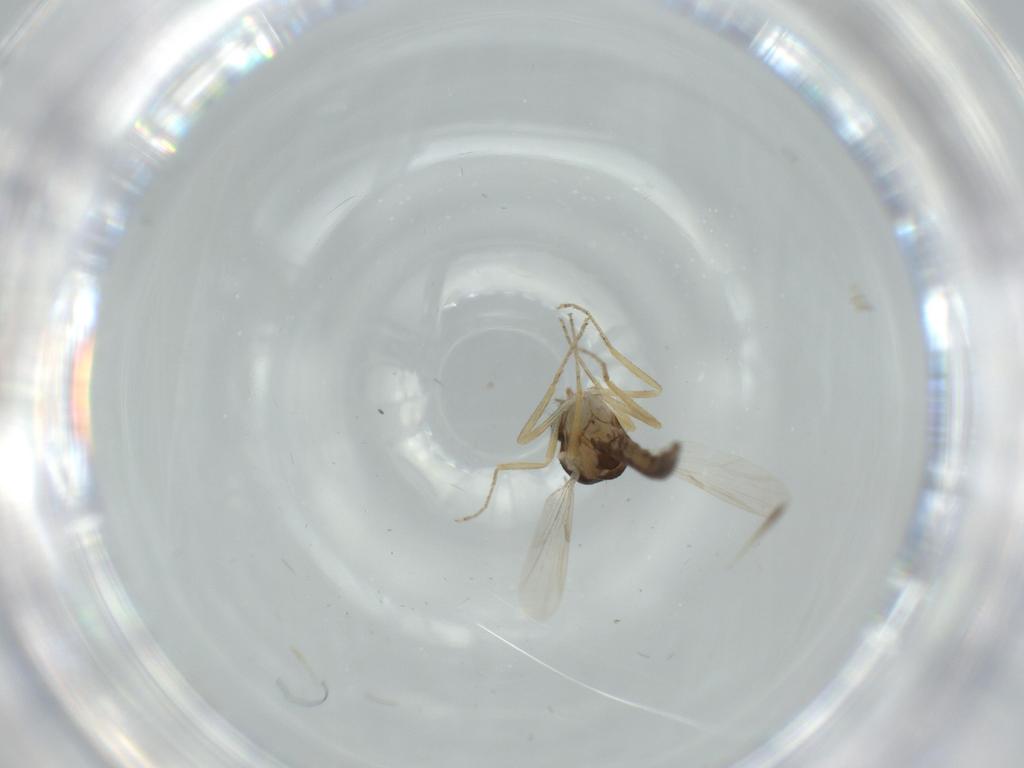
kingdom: Animalia
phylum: Arthropoda
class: Insecta
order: Diptera
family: Ceratopogonidae
